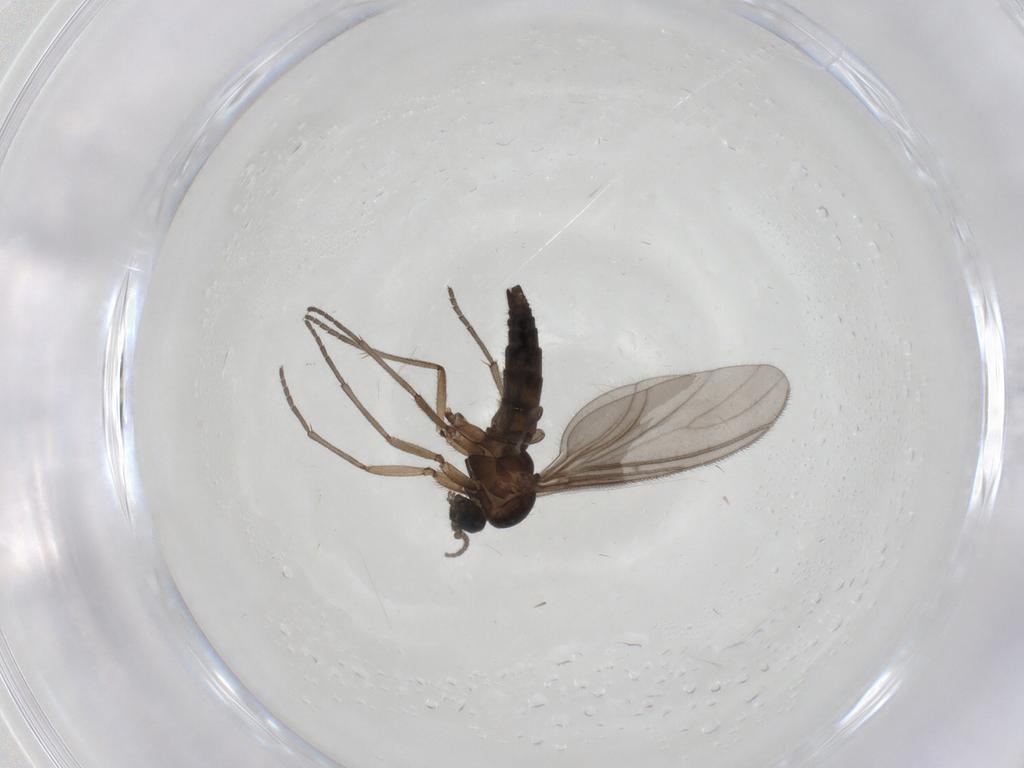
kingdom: Animalia
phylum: Arthropoda
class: Insecta
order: Diptera
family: Sciaridae
